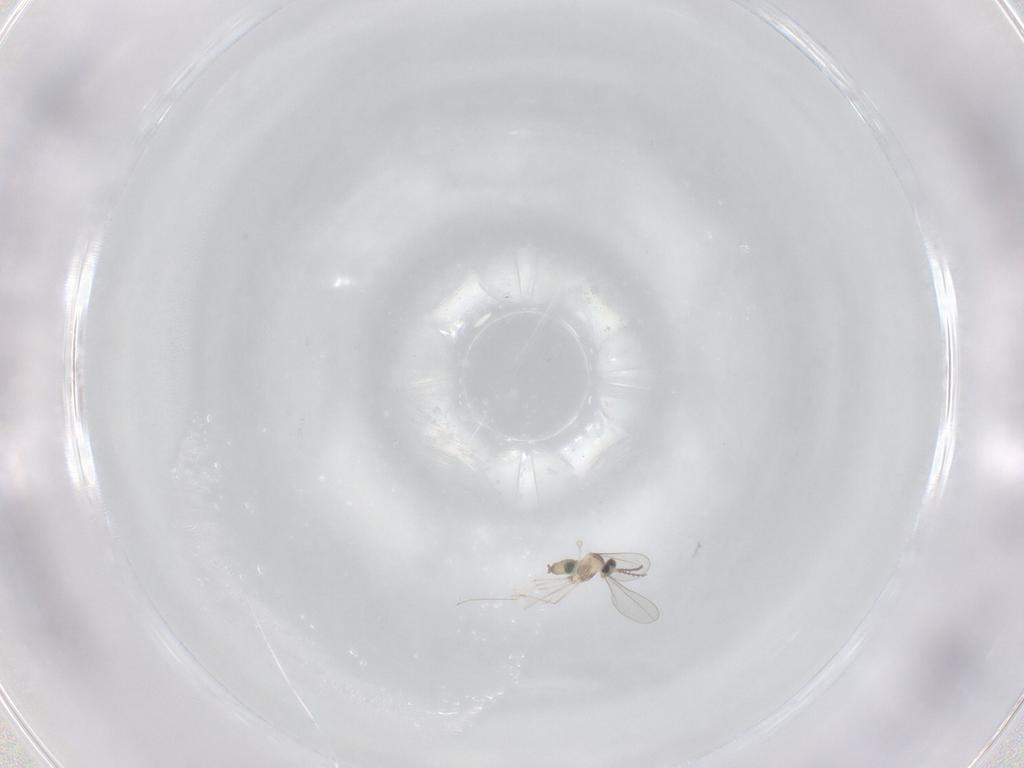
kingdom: Animalia
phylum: Arthropoda
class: Insecta
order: Diptera
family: Cecidomyiidae
